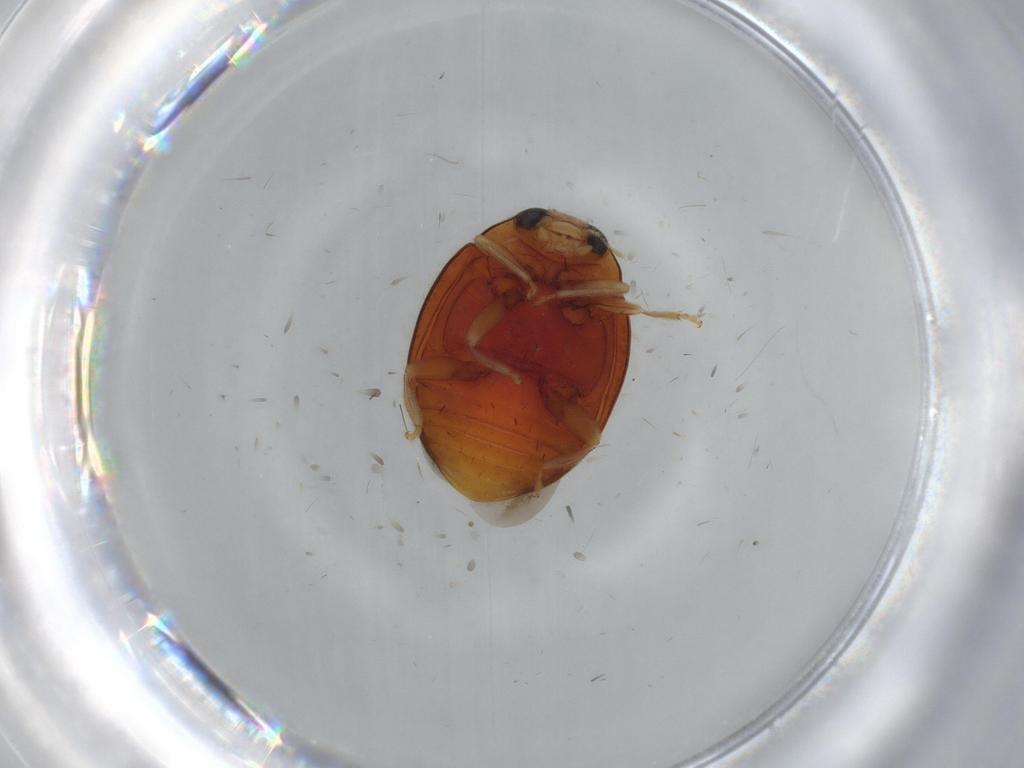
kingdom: Animalia
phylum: Arthropoda
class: Insecta
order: Coleoptera
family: Coccinellidae
